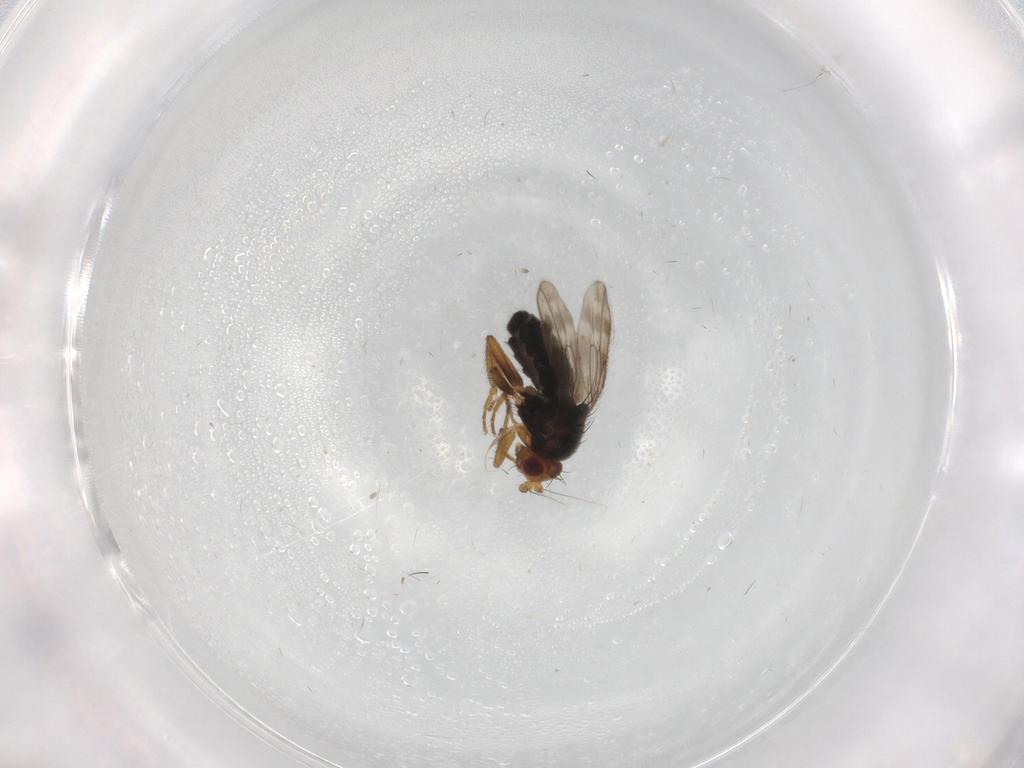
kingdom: Animalia
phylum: Arthropoda
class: Insecta
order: Diptera
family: Sphaeroceridae
